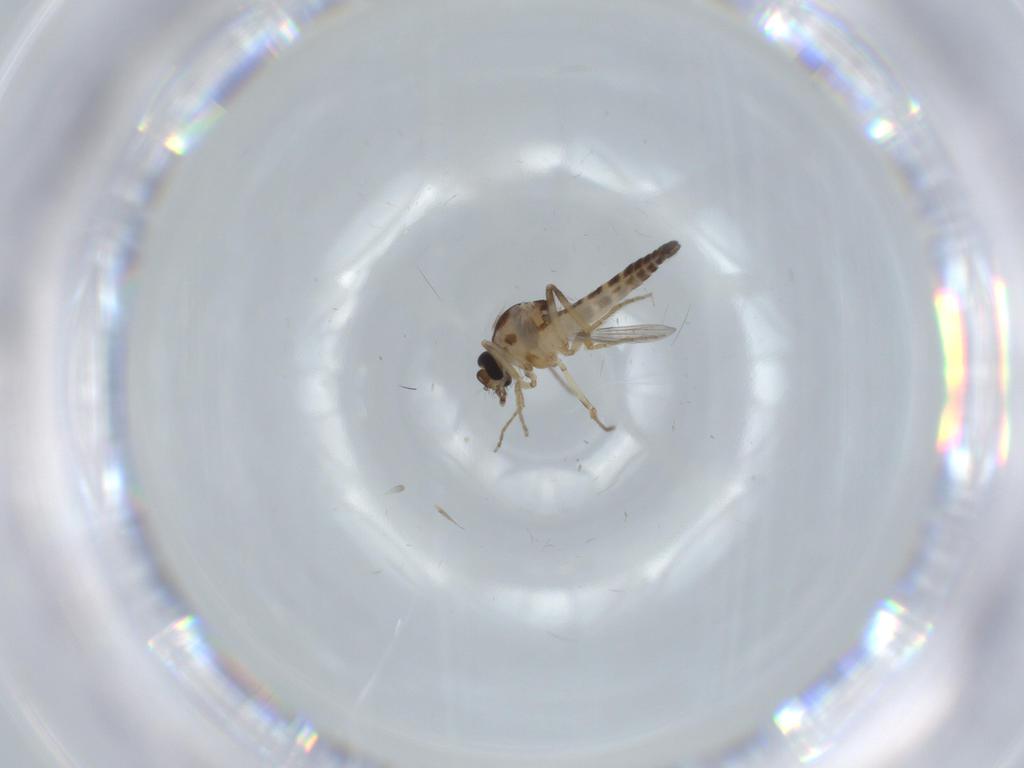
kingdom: Animalia
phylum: Arthropoda
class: Insecta
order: Diptera
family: Ceratopogonidae
